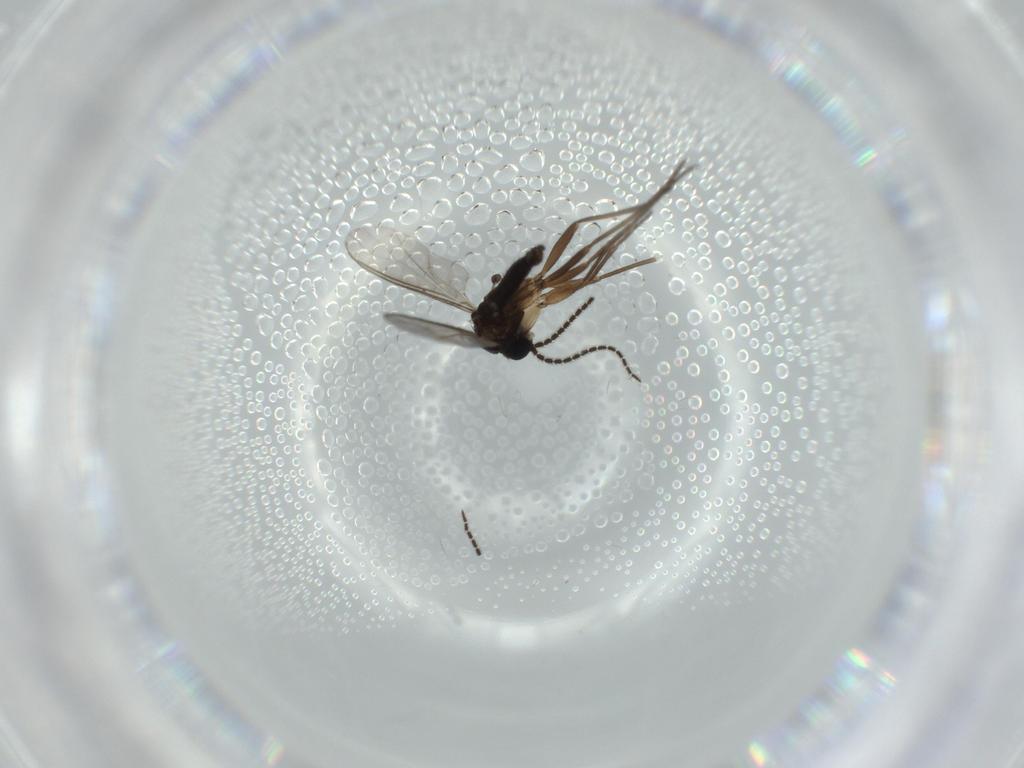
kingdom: Animalia
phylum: Arthropoda
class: Insecta
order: Diptera
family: Sciaridae
